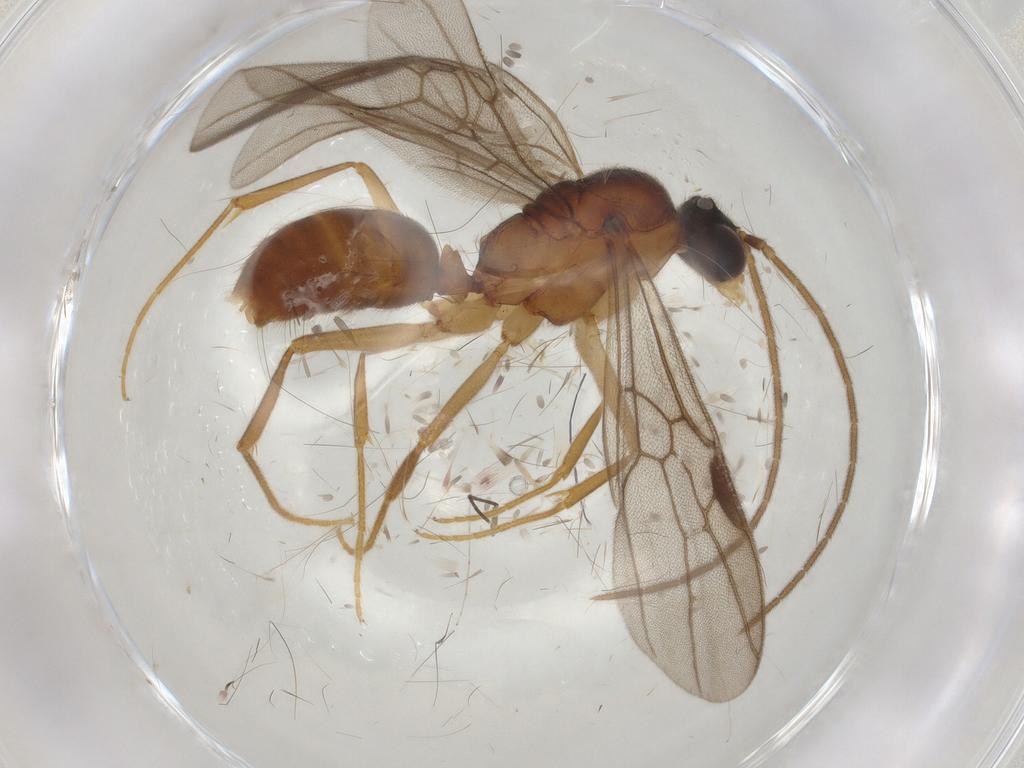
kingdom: Animalia
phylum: Arthropoda
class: Insecta
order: Hymenoptera
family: Formicidae
